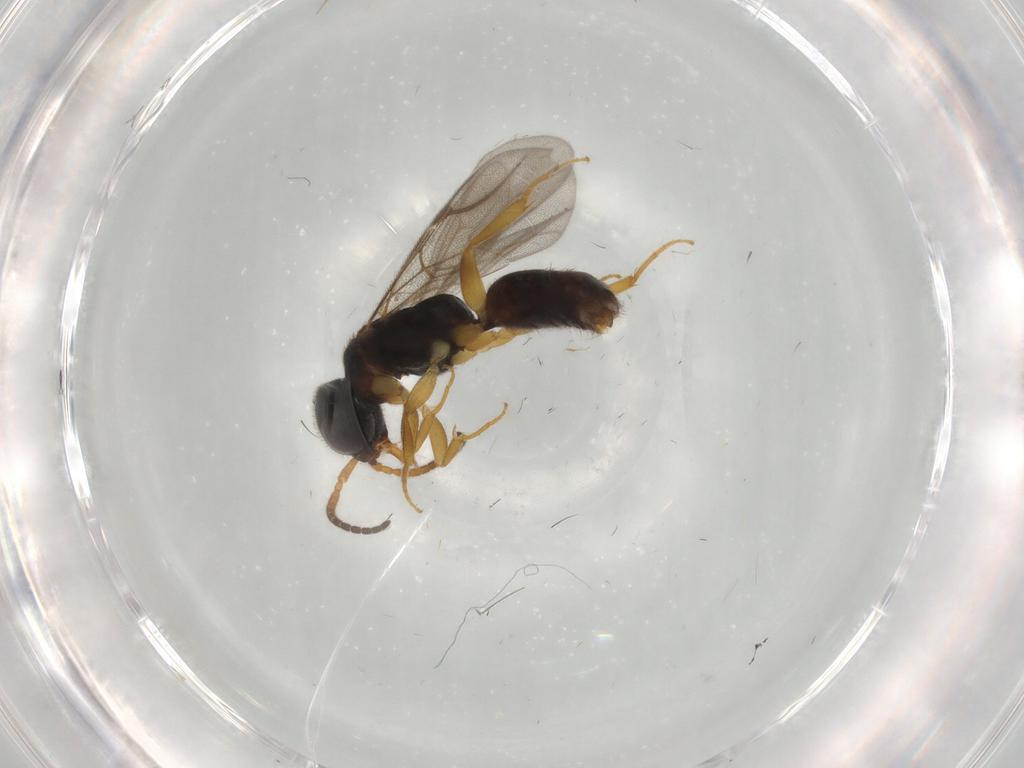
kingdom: Animalia
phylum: Arthropoda
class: Insecta
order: Hymenoptera
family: Bethylidae
